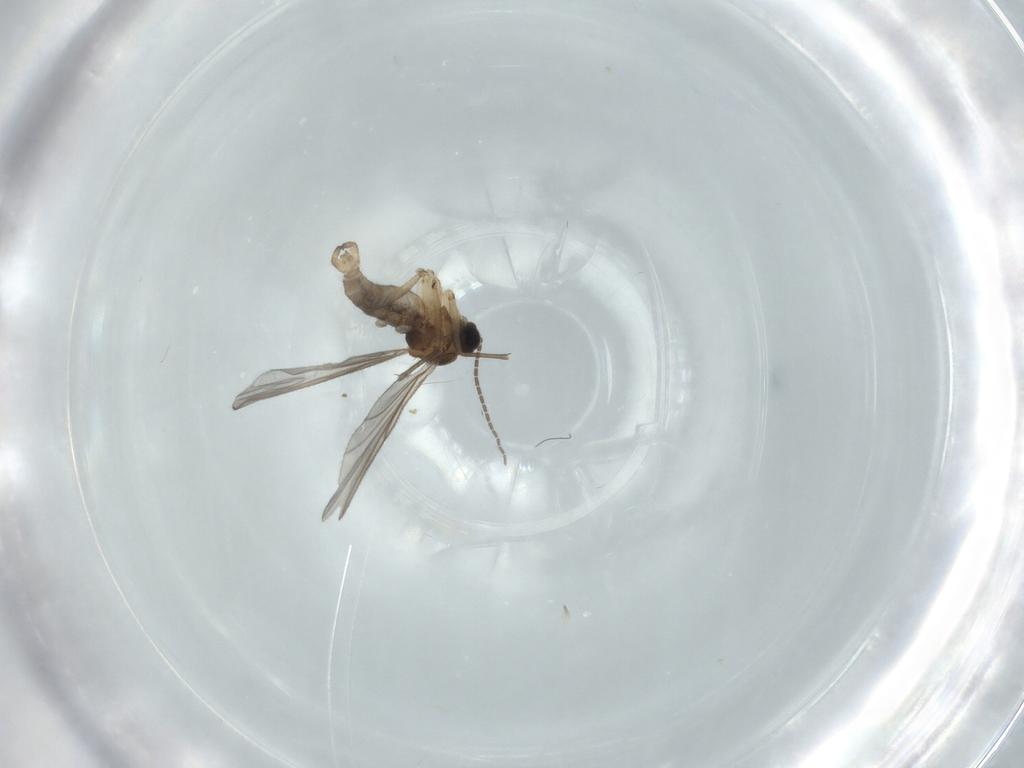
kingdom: Animalia
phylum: Arthropoda
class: Insecta
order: Diptera
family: Sciaridae
